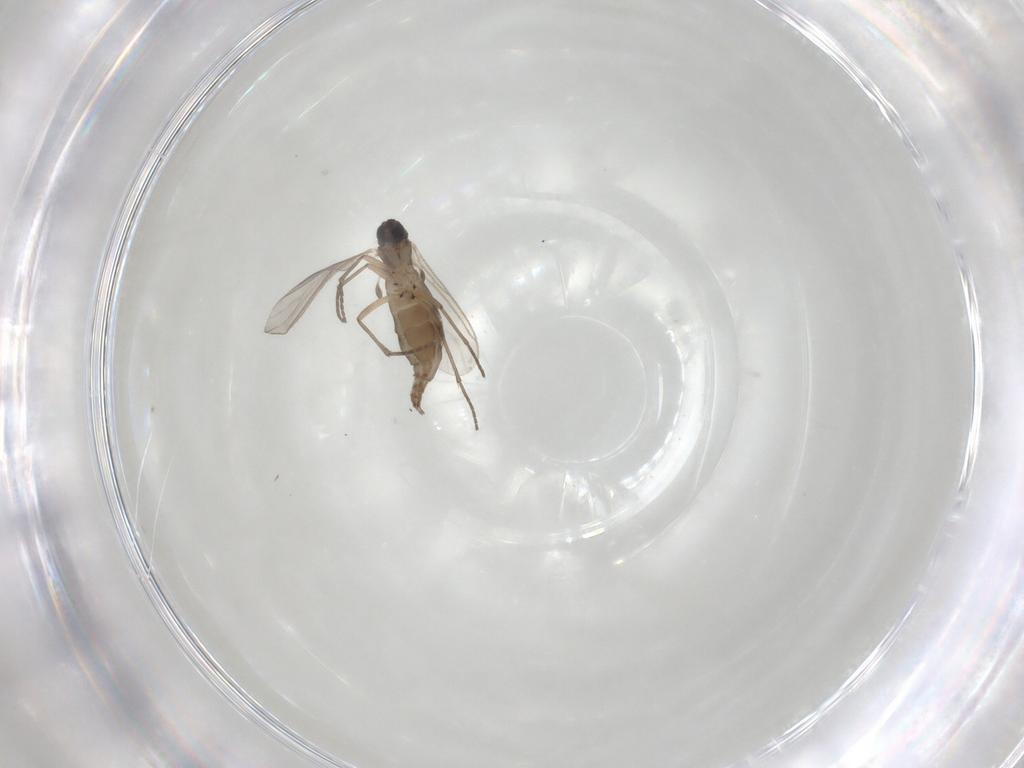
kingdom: Animalia
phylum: Arthropoda
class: Insecta
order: Diptera
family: Sciaridae
